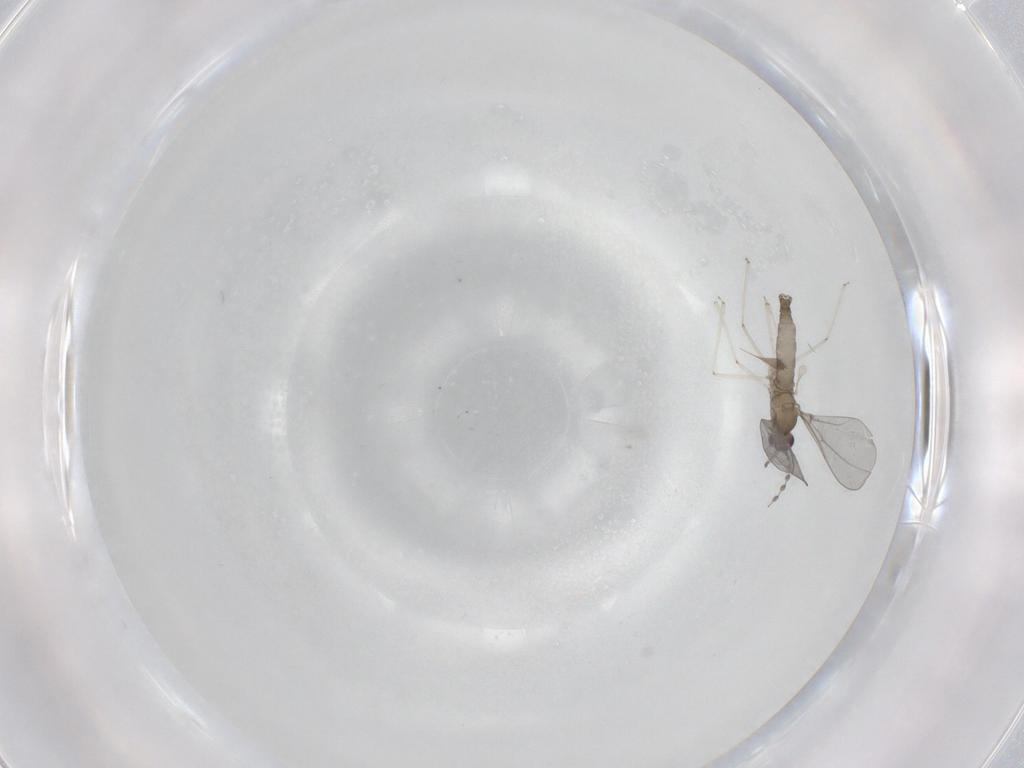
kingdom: Animalia
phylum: Arthropoda
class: Insecta
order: Diptera
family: Cecidomyiidae
